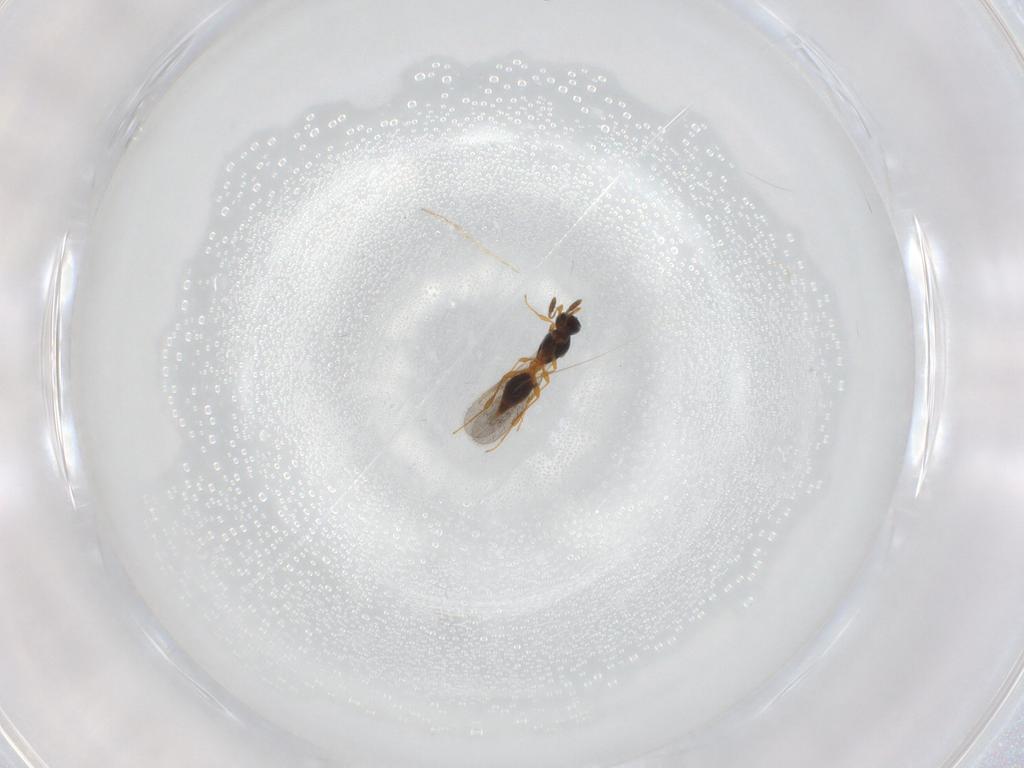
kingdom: Animalia
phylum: Arthropoda
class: Insecta
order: Hymenoptera
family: Platygastridae
